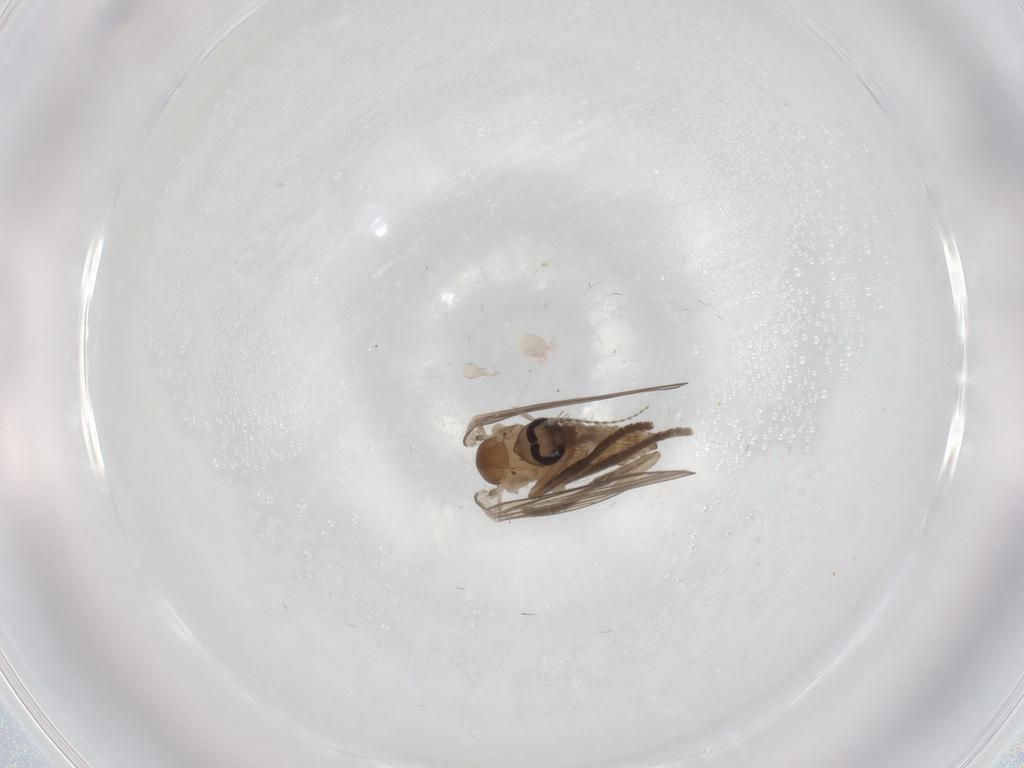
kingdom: Animalia
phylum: Arthropoda
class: Insecta
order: Diptera
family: Psychodidae
